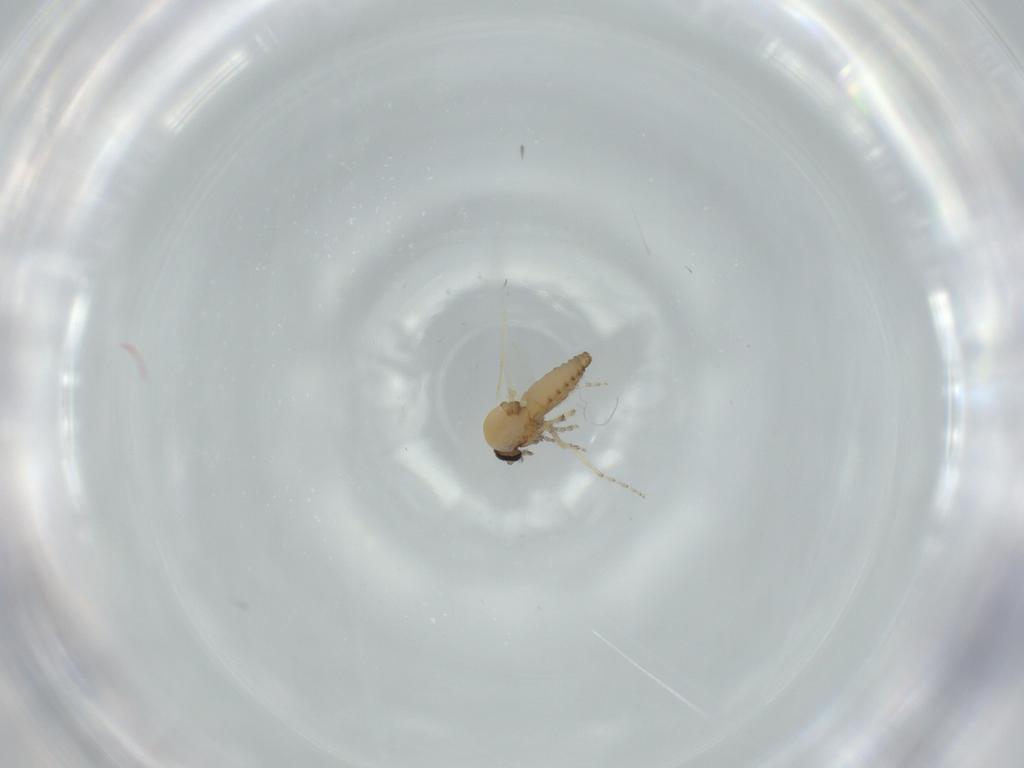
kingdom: Animalia
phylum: Arthropoda
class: Insecta
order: Diptera
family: Ceratopogonidae
